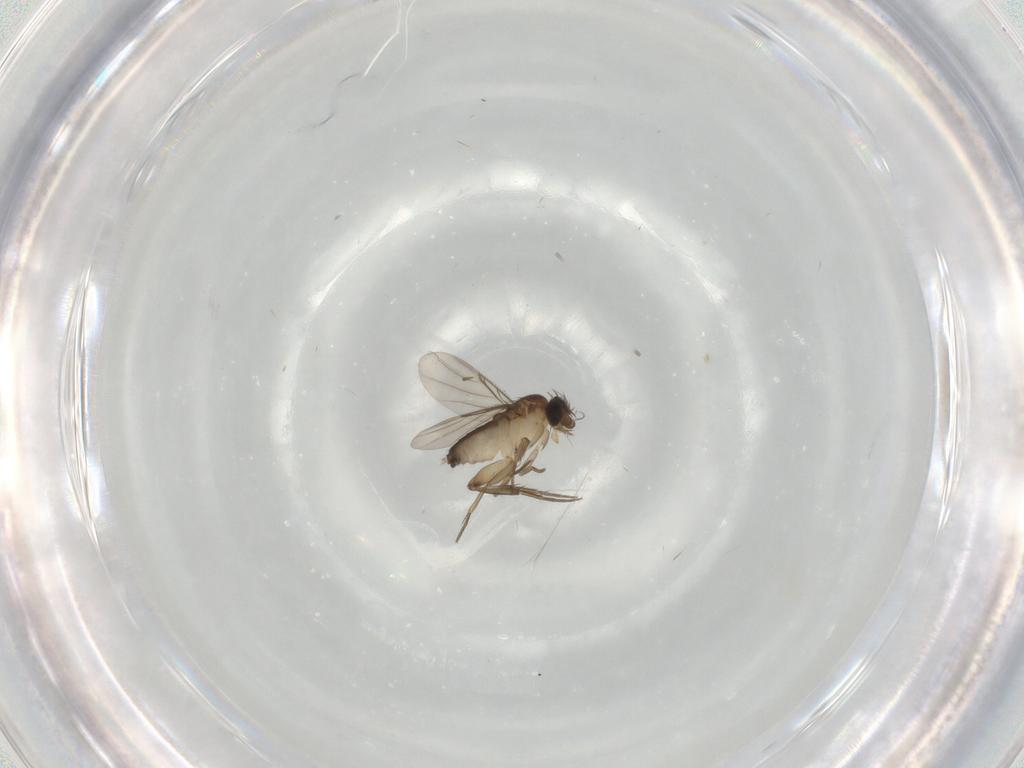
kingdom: Animalia
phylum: Arthropoda
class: Insecta
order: Diptera
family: Phoridae
